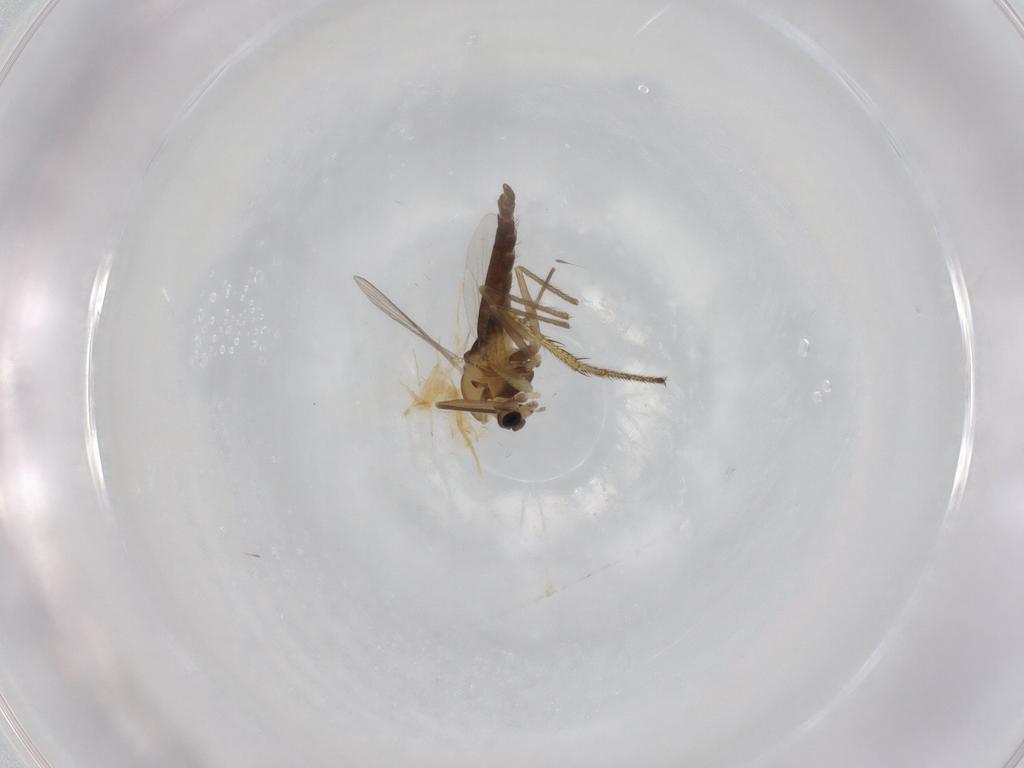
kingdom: Animalia
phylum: Arthropoda
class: Insecta
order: Diptera
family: Chironomidae
